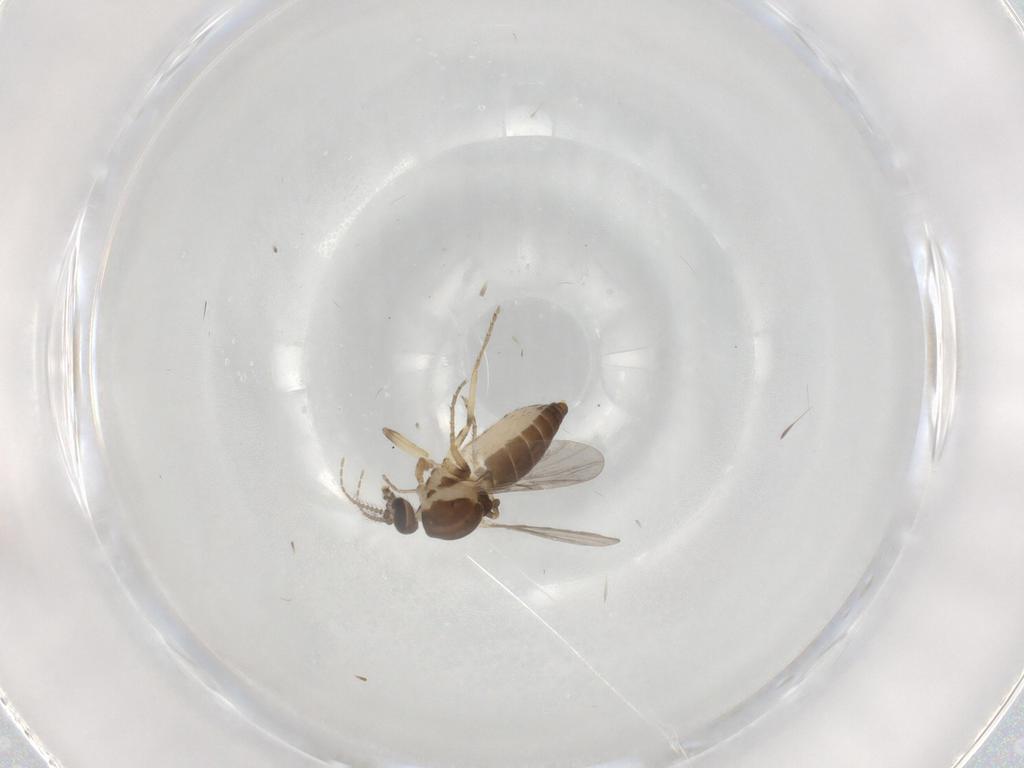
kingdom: Animalia
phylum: Arthropoda
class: Insecta
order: Diptera
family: Ceratopogonidae
